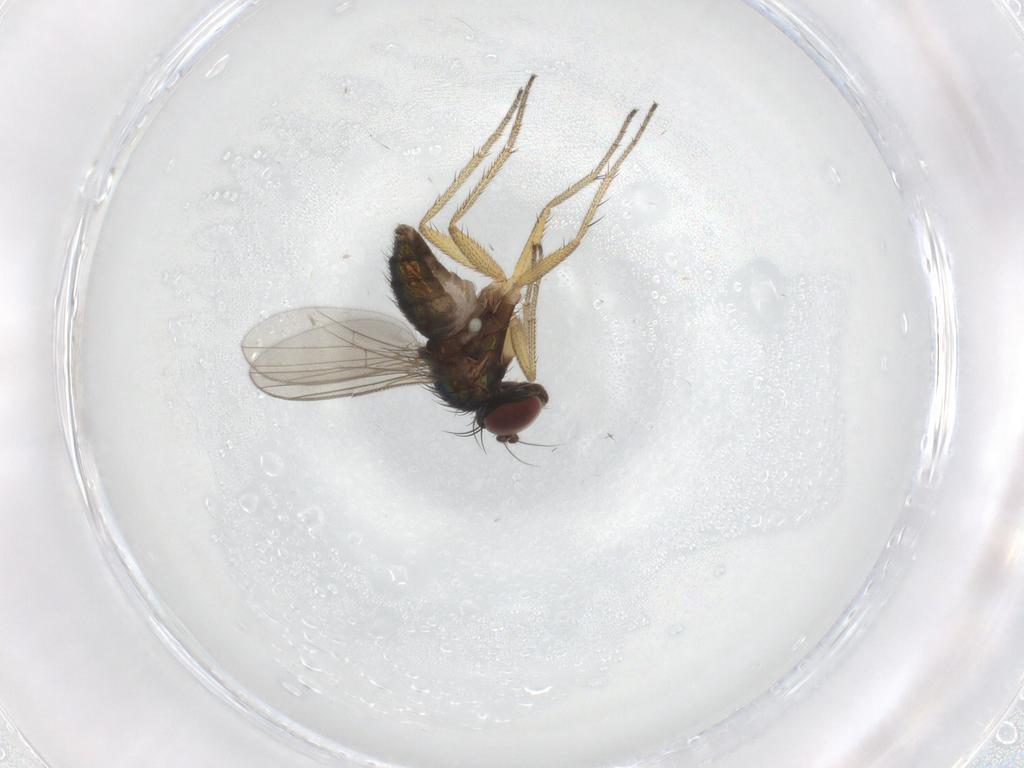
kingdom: Animalia
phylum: Arthropoda
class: Insecta
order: Diptera
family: Dolichopodidae
